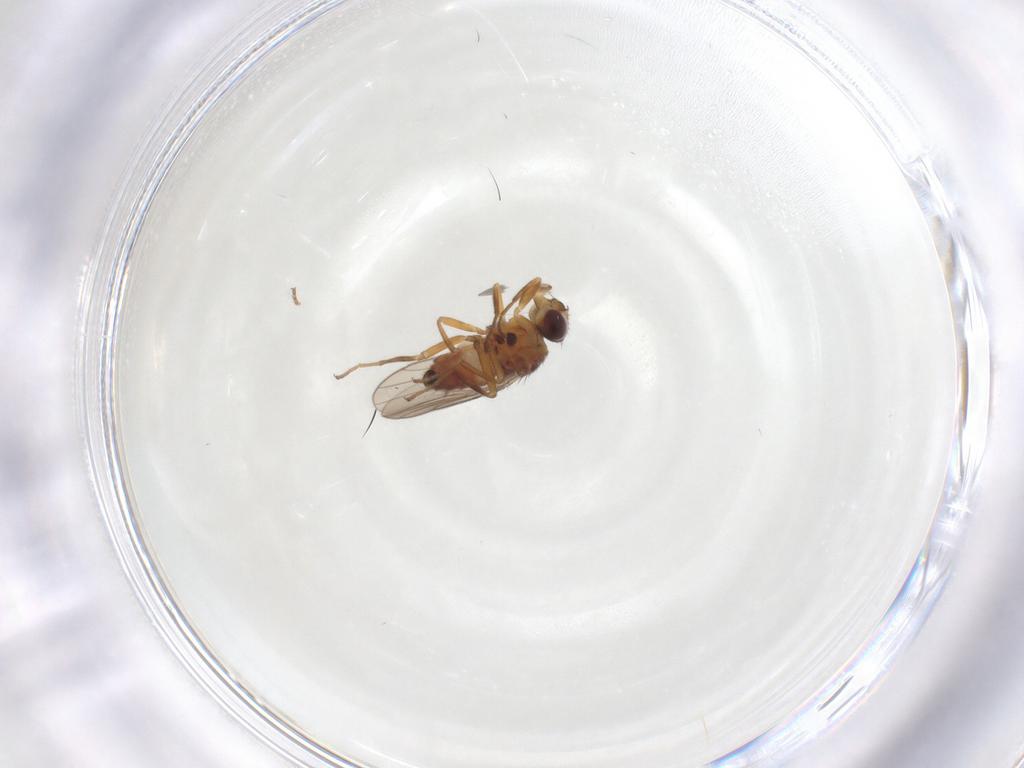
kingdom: Animalia
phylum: Arthropoda
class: Insecta
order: Diptera
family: Chloropidae
